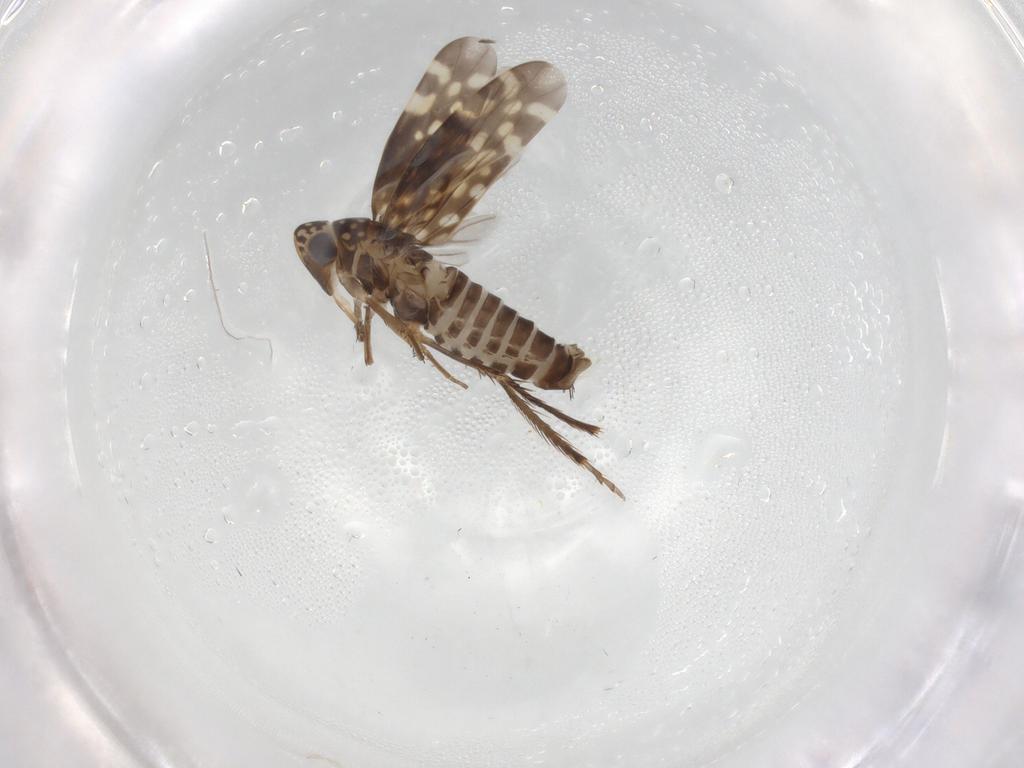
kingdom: Animalia
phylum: Arthropoda
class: Insecta
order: Hemiptera
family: Cicadellidae
